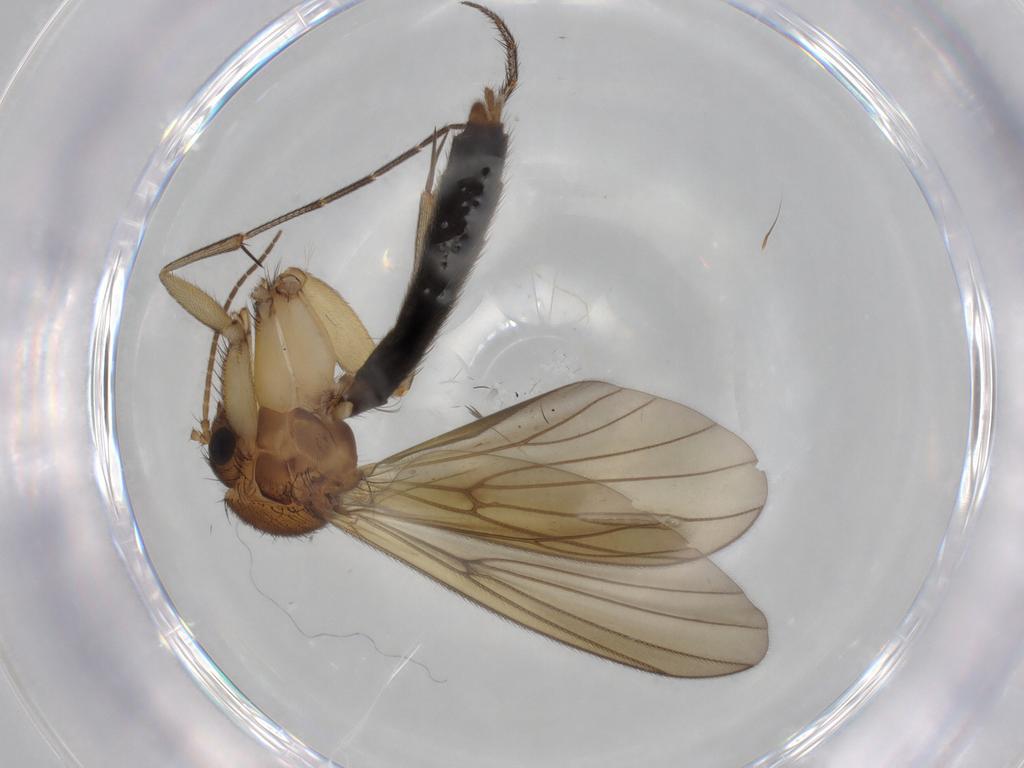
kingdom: Animalia
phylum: Arthropoda
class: Insecta
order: Diptera
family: Phoridae
